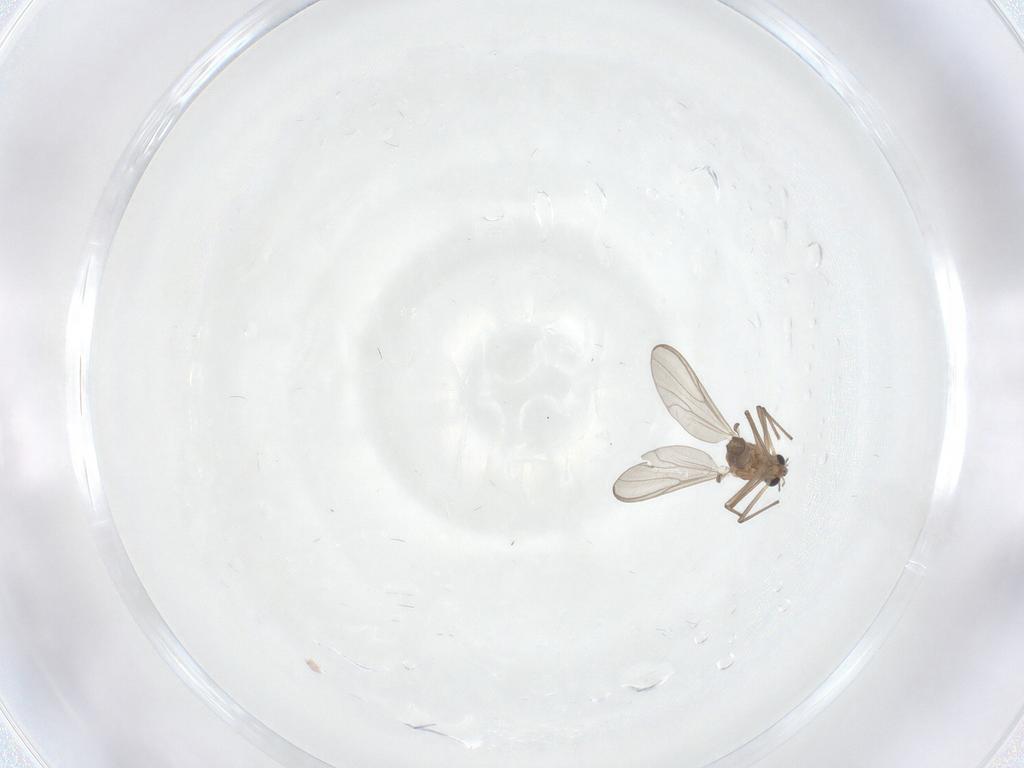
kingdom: Animalia
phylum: Arthropoda
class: Insecta
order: Diptera
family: Chironomidae
